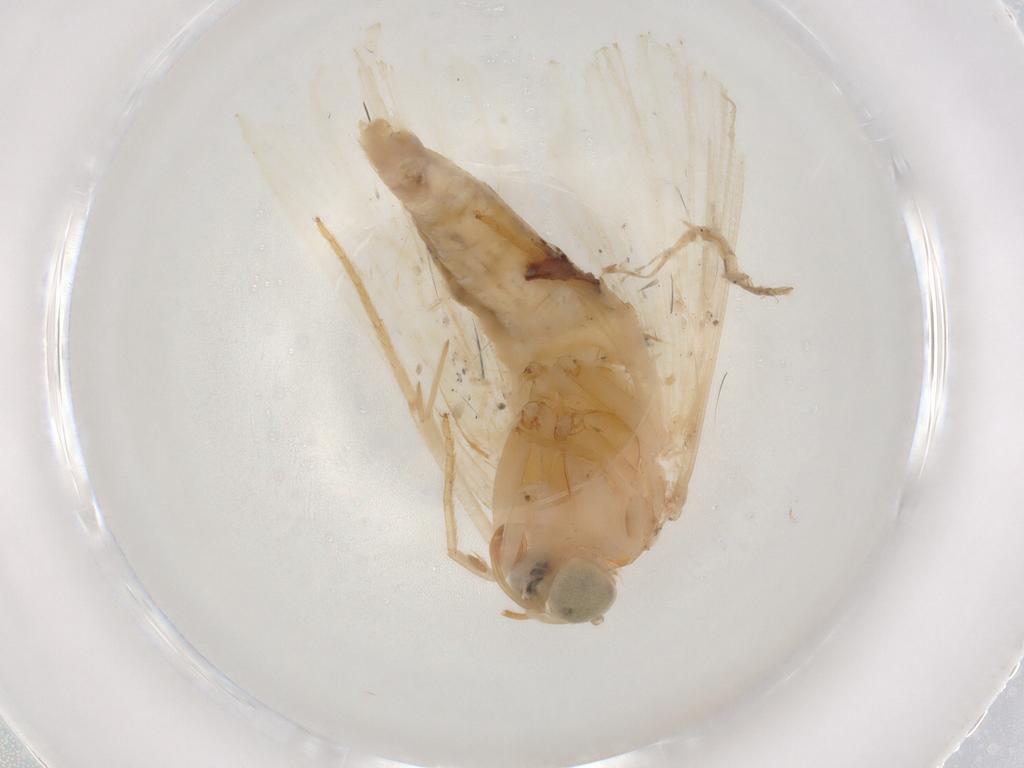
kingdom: Animalia
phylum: Arthropoda
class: Insecta
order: Lepidoptera
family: Noctuidae
